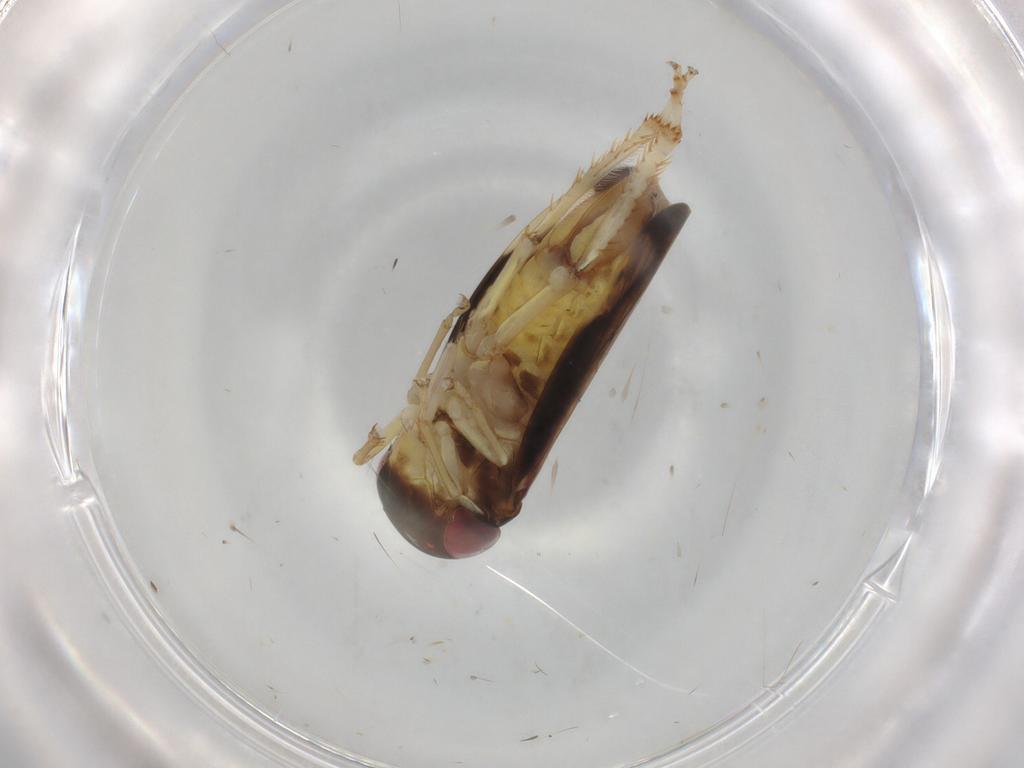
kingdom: Animalia
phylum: Arthropoda
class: Insecta
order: Hemiptera
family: Cicadellidae
